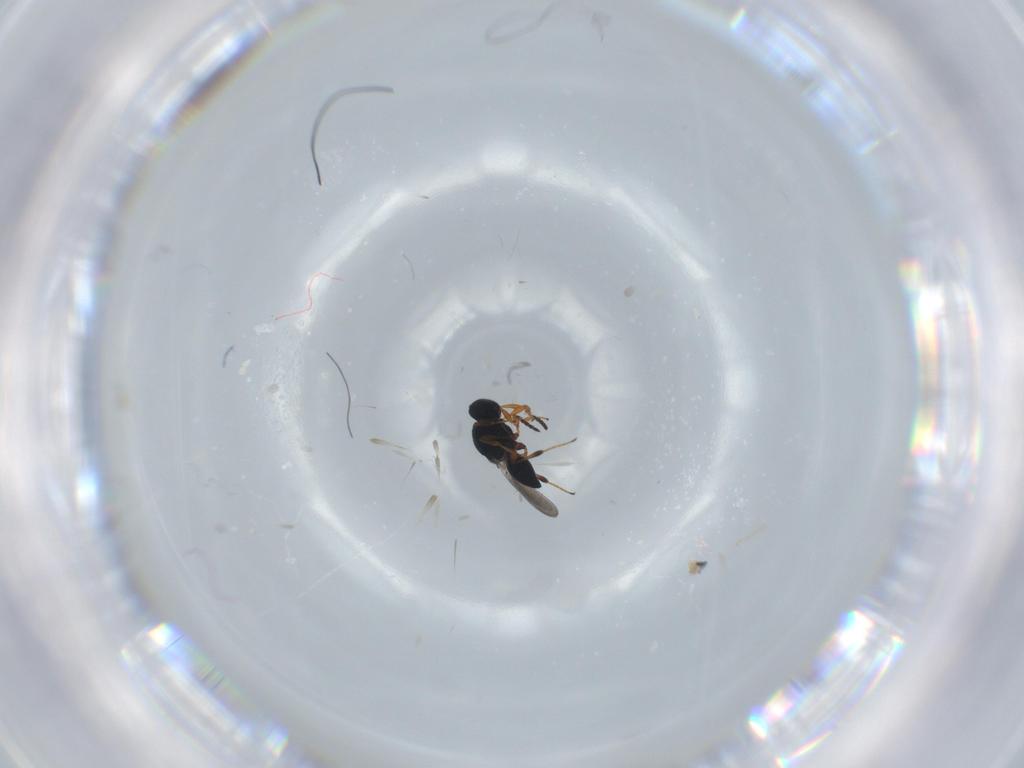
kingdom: Animalia
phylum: Arthropoda
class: Insecta
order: Hymenoptera
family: Platygastridae
